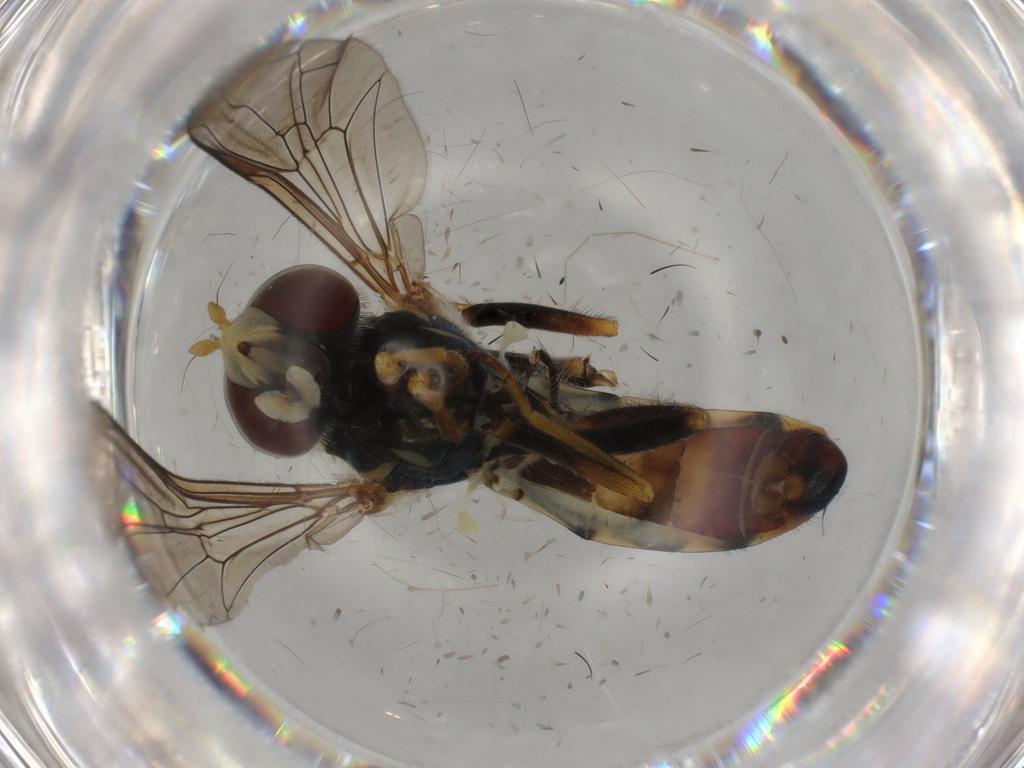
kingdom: Animalia
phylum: Arthropoda
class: Insecta
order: Diptera
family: Syrphidae
